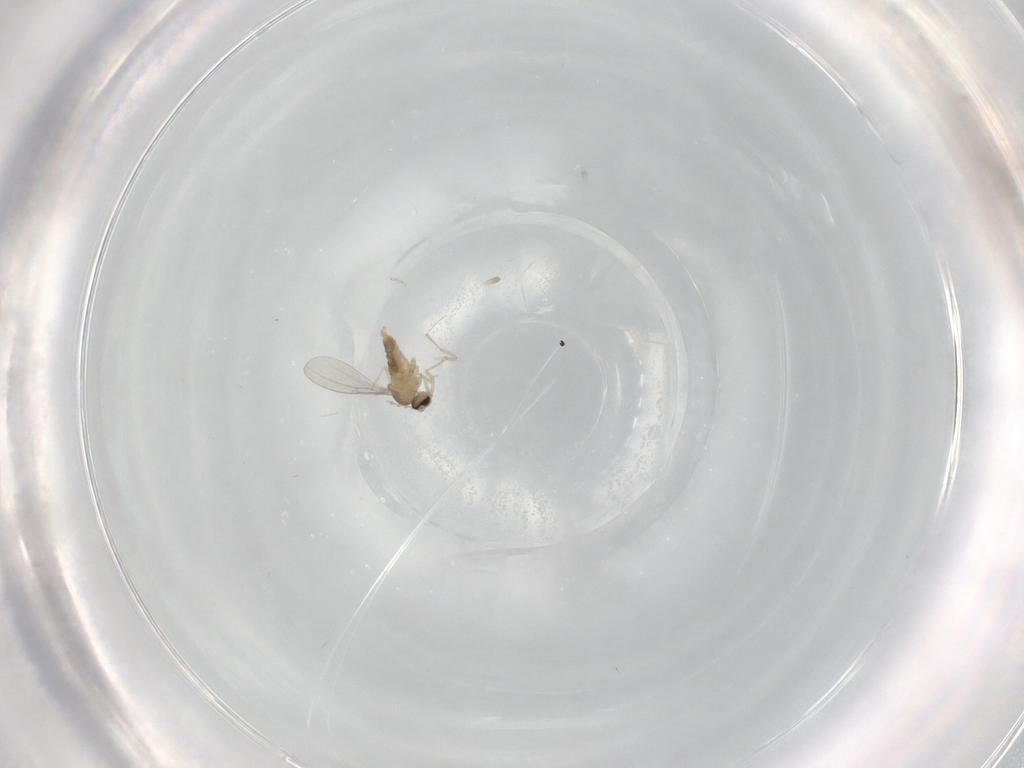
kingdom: Animalia
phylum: Arthropoda
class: Insecta
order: Diptera
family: Cecidomyiidae
